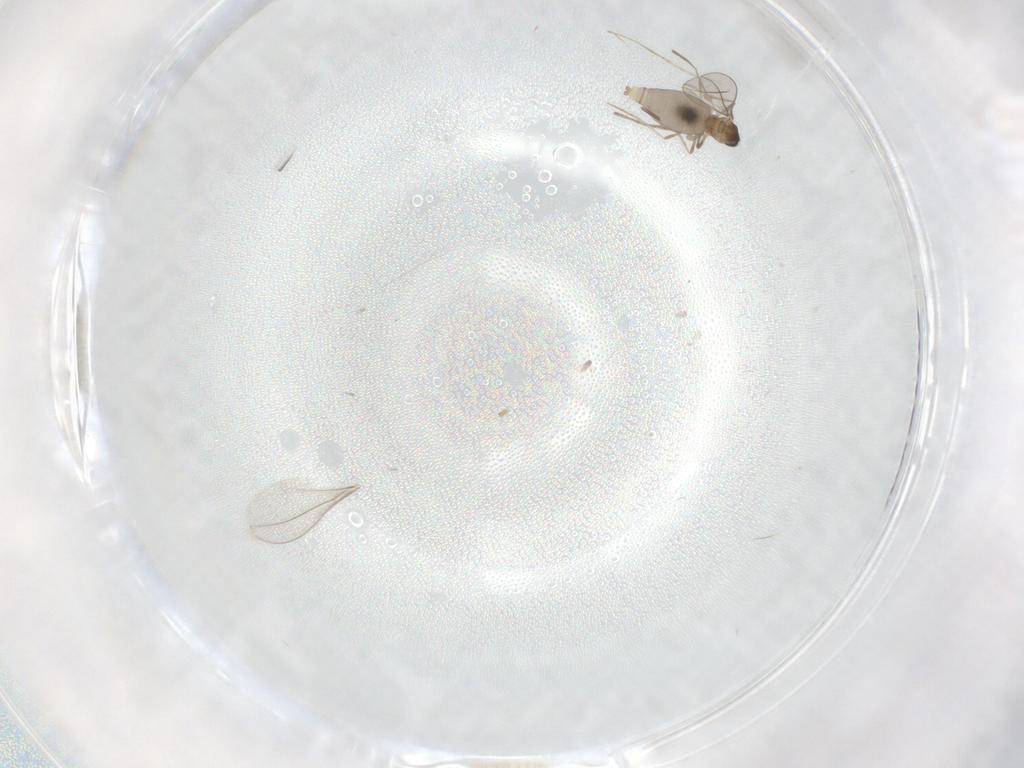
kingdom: Animalia
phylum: Arthropoda
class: Insecta
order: Diptera
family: Cecidomyiidae
